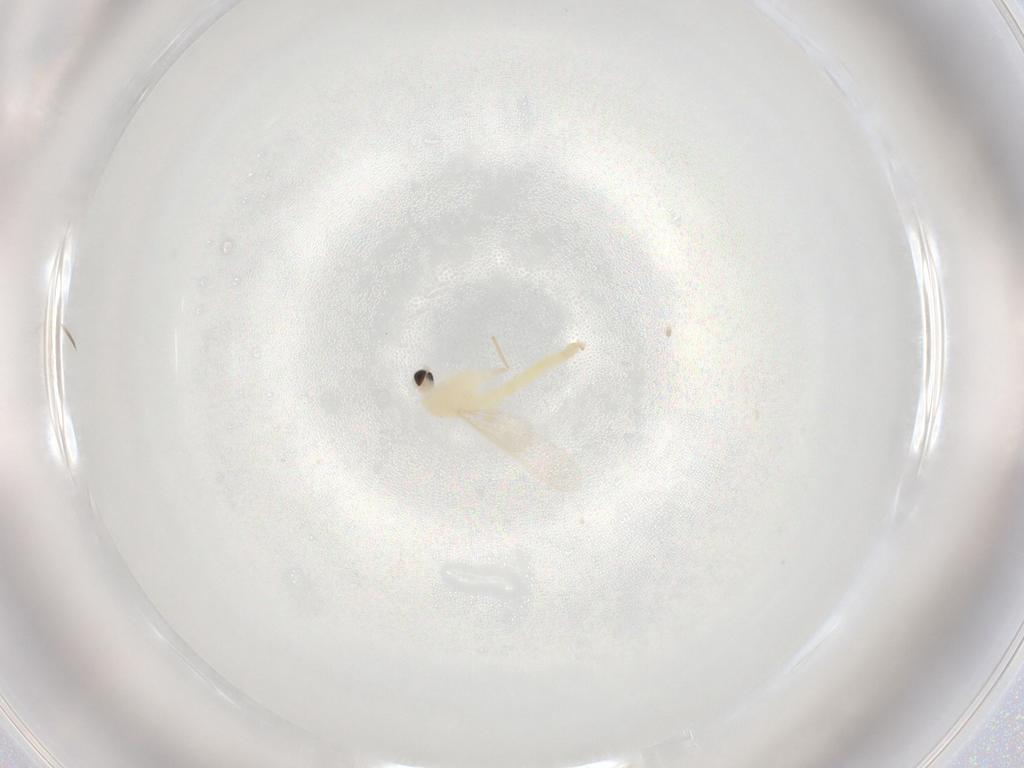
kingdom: Animalia
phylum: Arthropoda
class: Insecta
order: Diptera
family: Chironomidae
